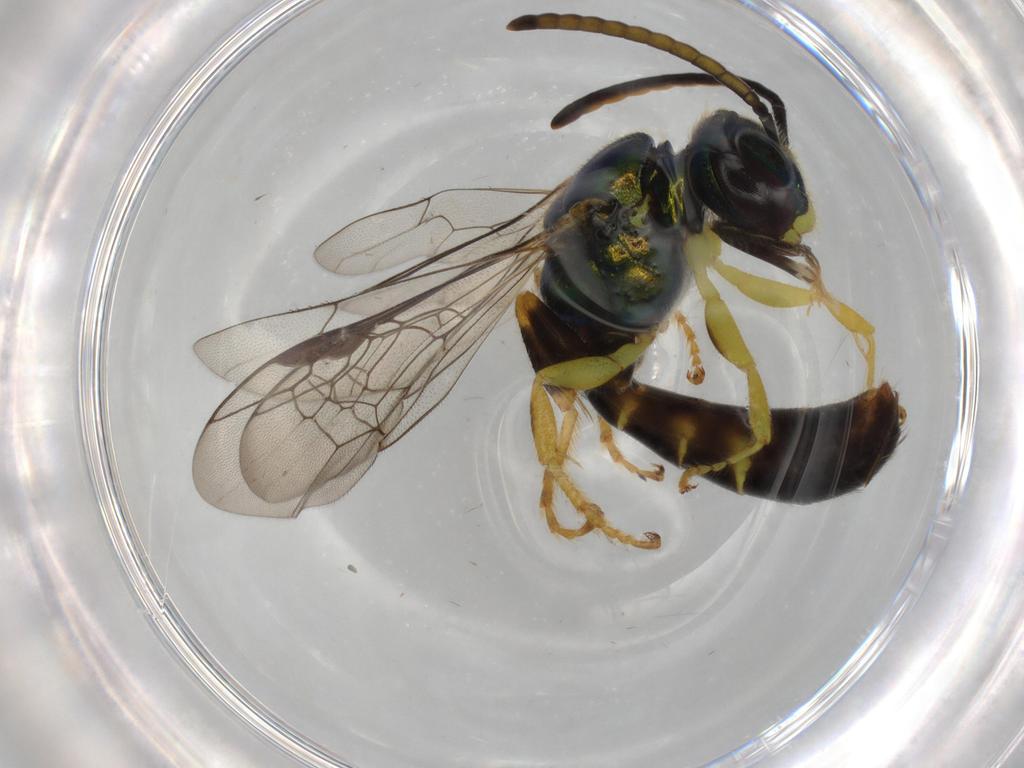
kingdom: Animalia
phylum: Arthropoda
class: Insecta
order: Hymenoptera
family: Halictidae
